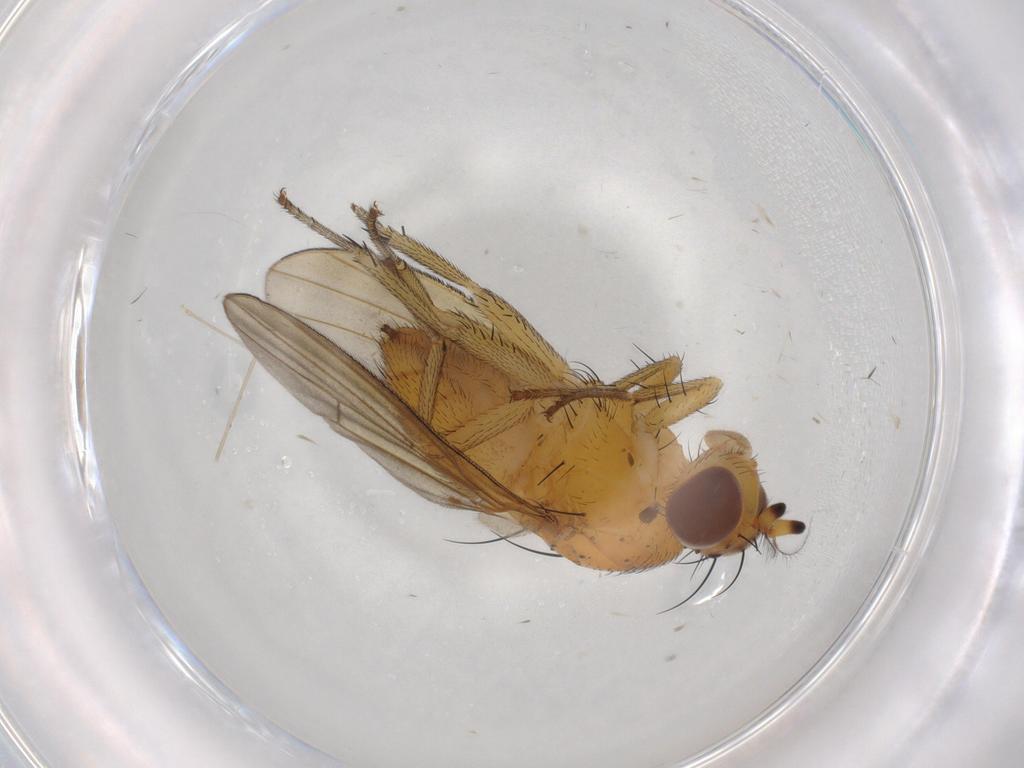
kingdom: Animalia
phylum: Arthropoda
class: Insecta
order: Diptera
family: Lauxaniidae
